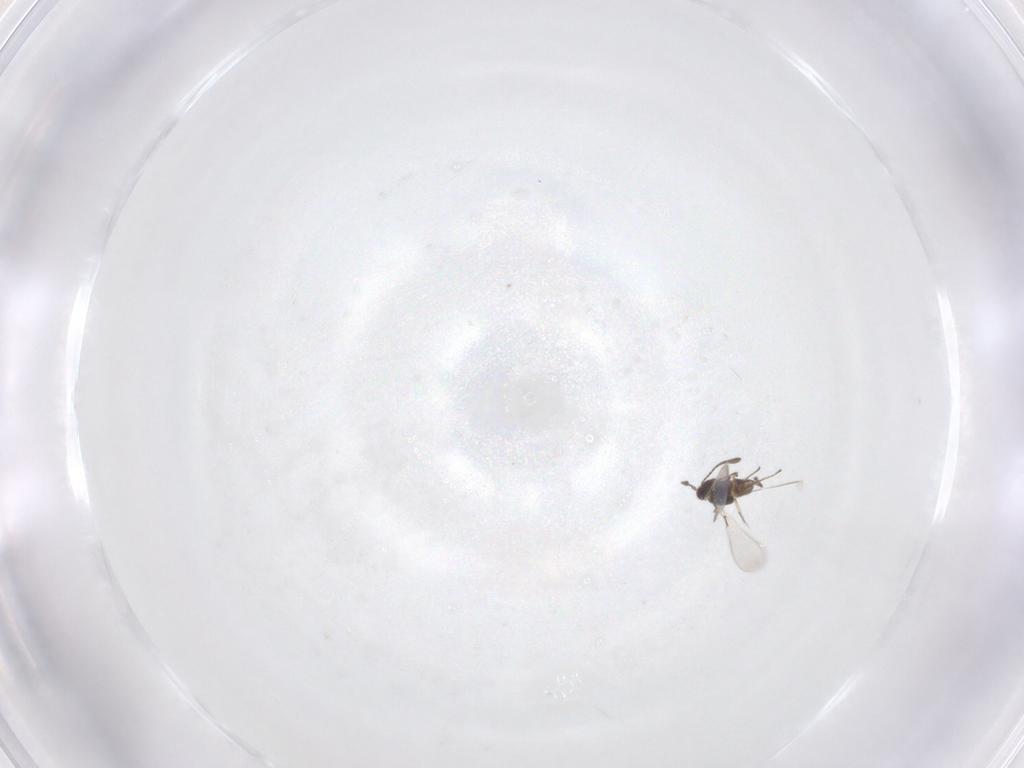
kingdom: Animalia
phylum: Arthropoda
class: Insecta
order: Hymenoptera
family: Mymaridae
